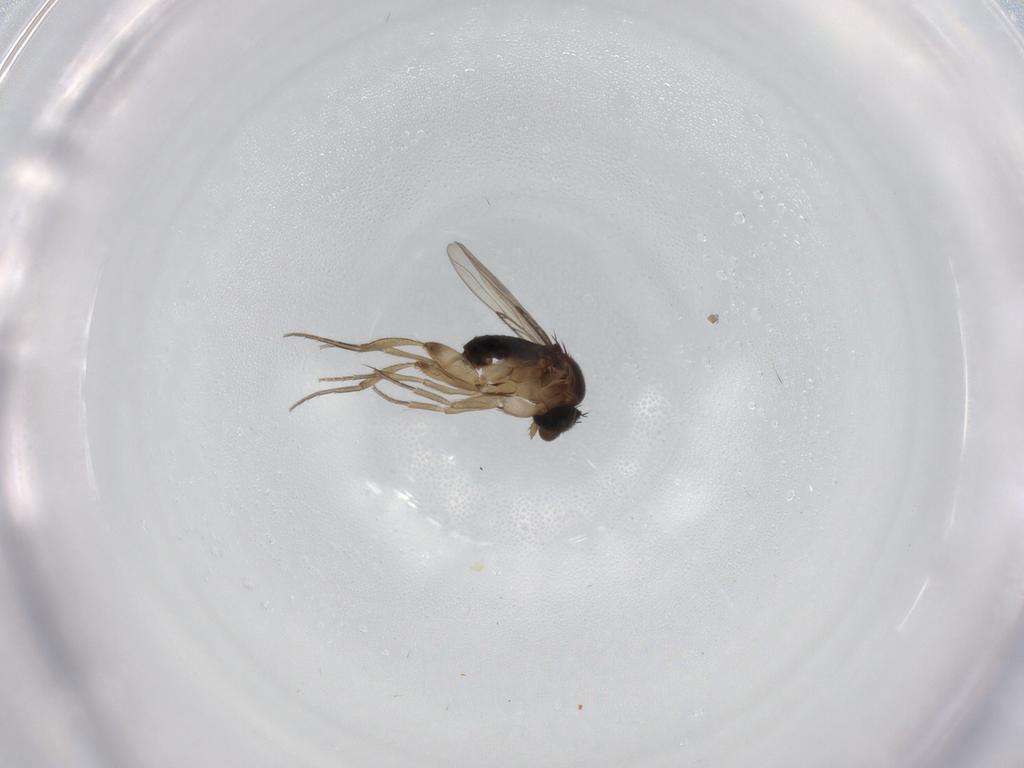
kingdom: Animalia
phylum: Arthropoda
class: Insecta
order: Diptera
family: Phoridae
